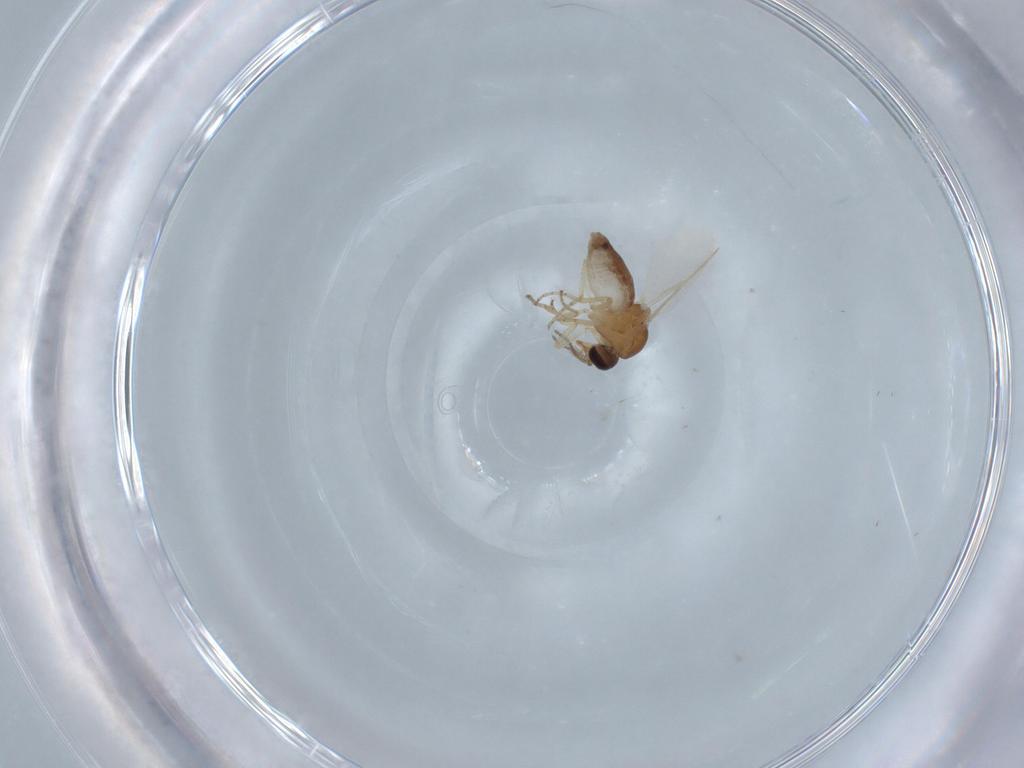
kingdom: Animalia
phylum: Arthropoda
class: Insecta
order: Diptera
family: Ceratopogonidae
